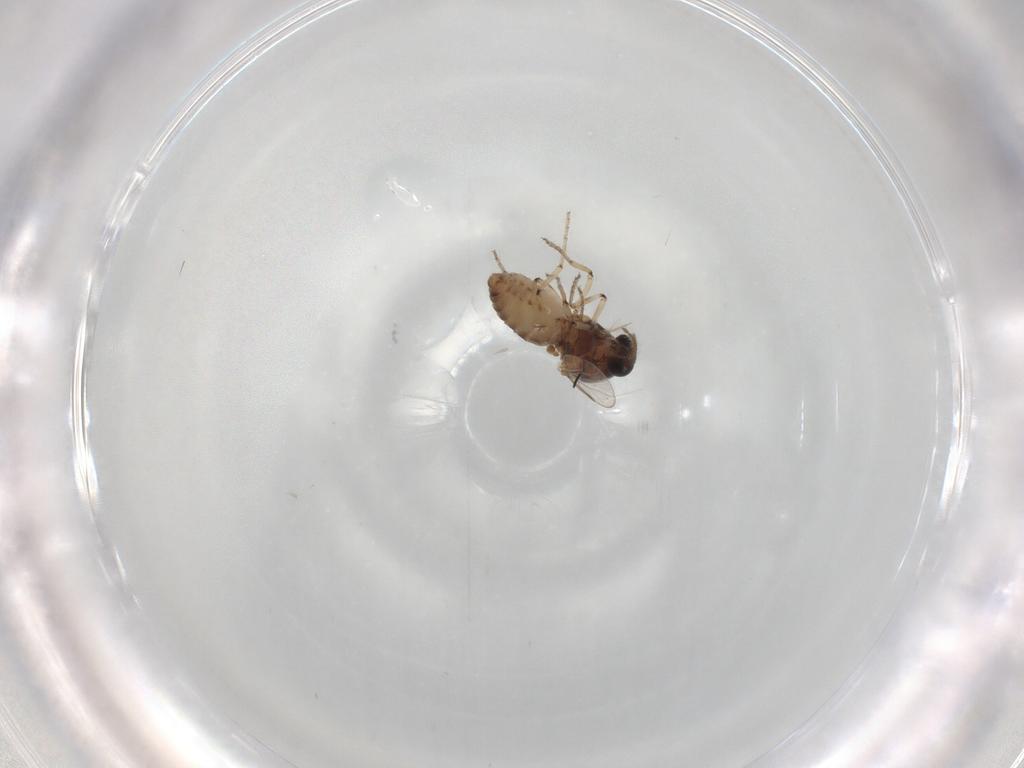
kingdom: Animalia
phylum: Arthropoda
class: Insecta
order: Diptera
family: Ceratopogonidae
